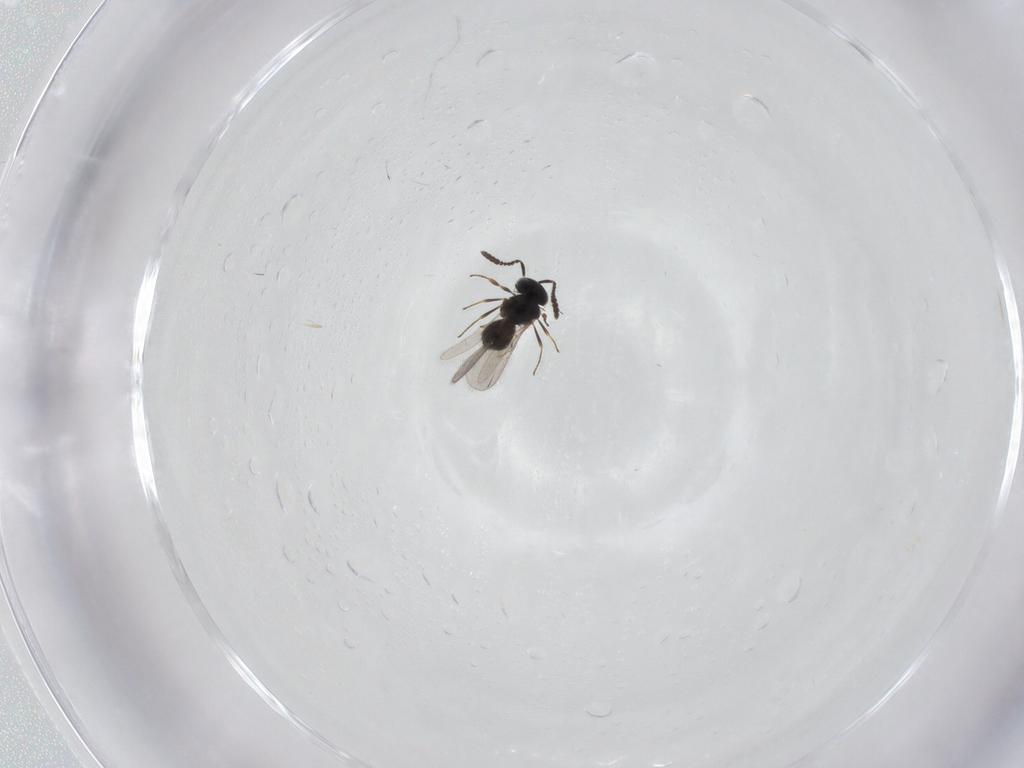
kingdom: Animalia
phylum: Arthropoda
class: Insecta
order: Hymenoptera
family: Scelionidae
